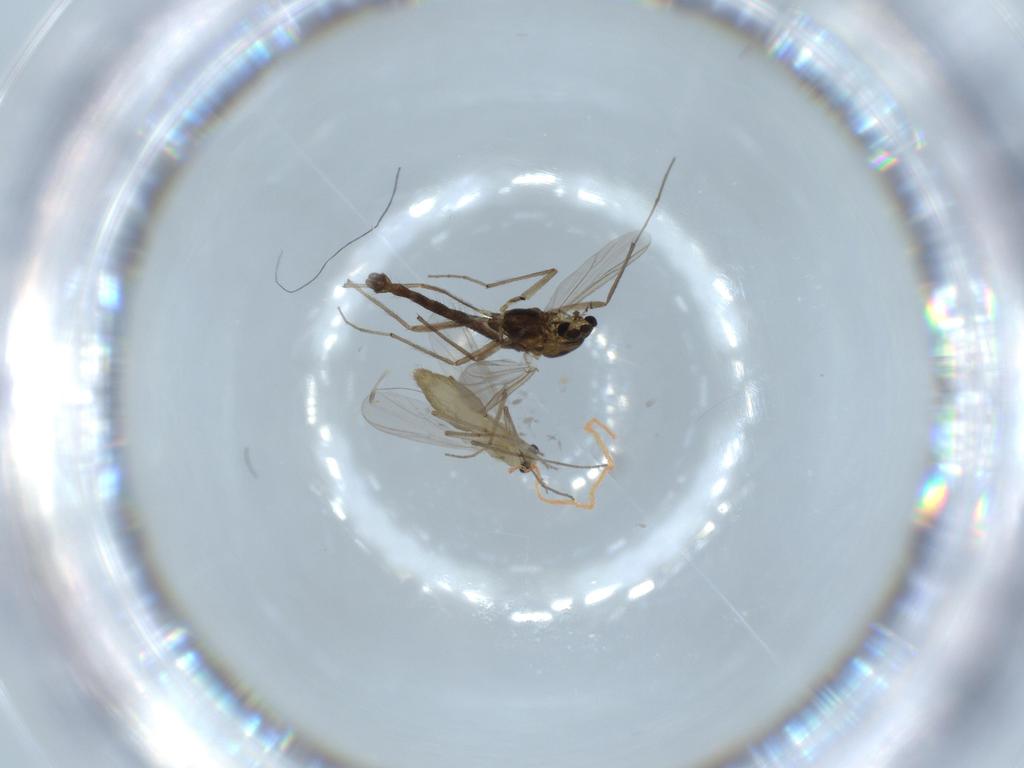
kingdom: Animalia
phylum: Arthropoda
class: Insecta
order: Diptera
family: Chironomidae
